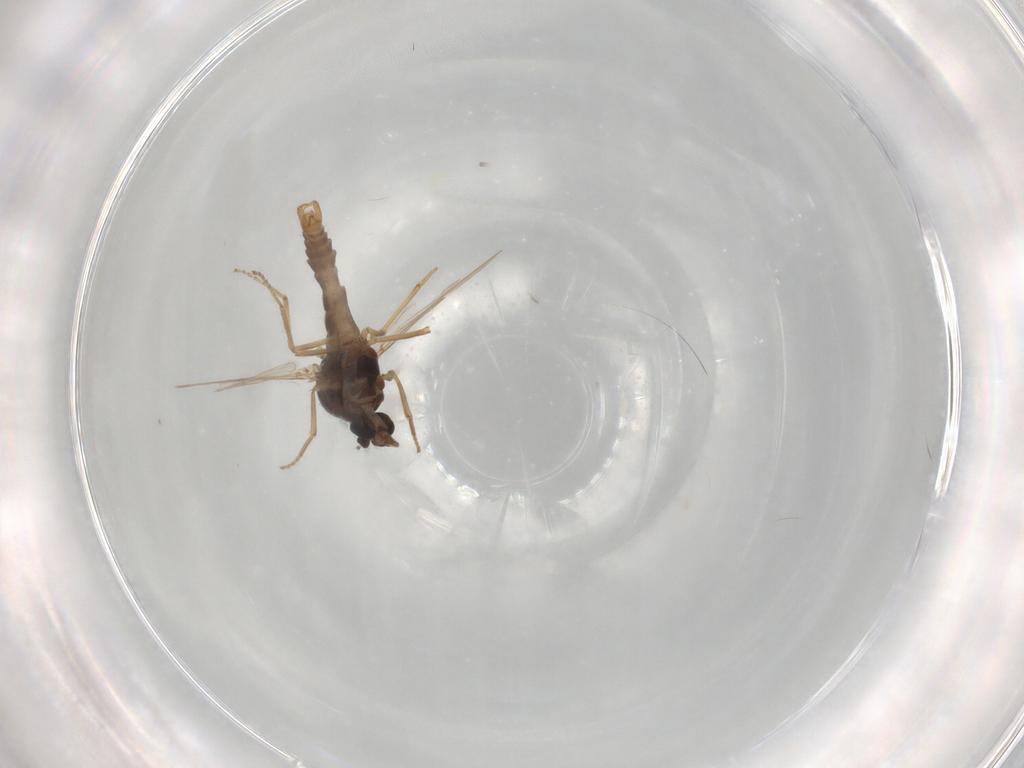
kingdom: Animalia
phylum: Arthropoda
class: Insecta
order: Diptera
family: Ceratopogonidae
